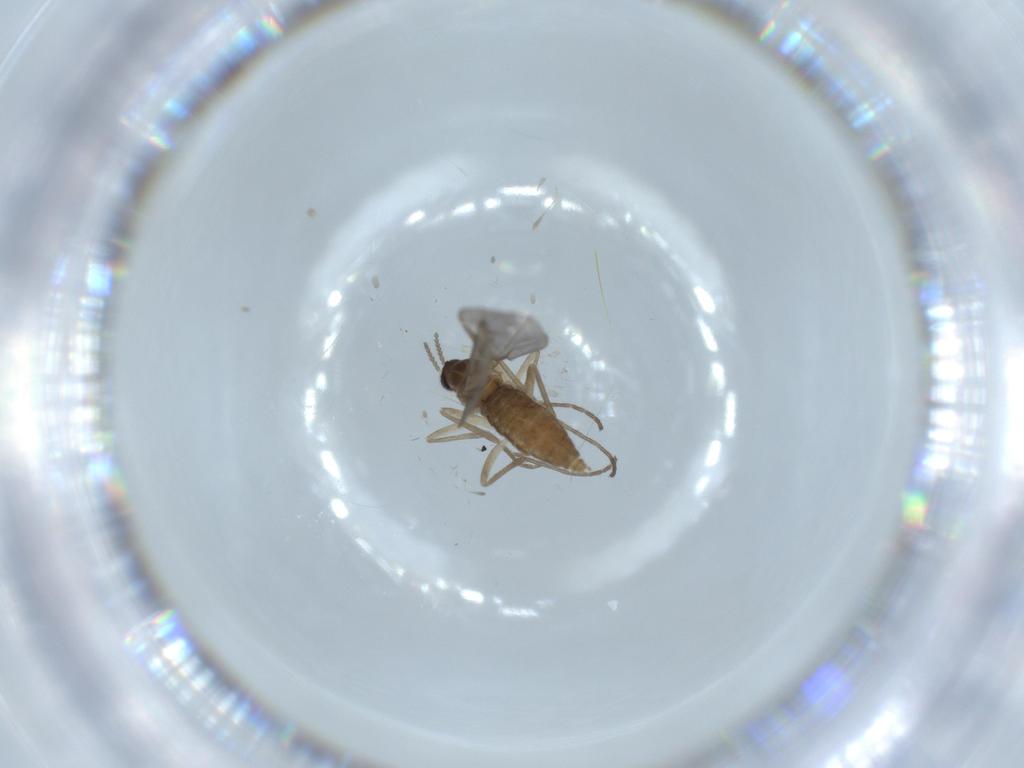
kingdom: Animalia
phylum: Arthropoda
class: Insecta
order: Diptera
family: Cecidomyiidae
